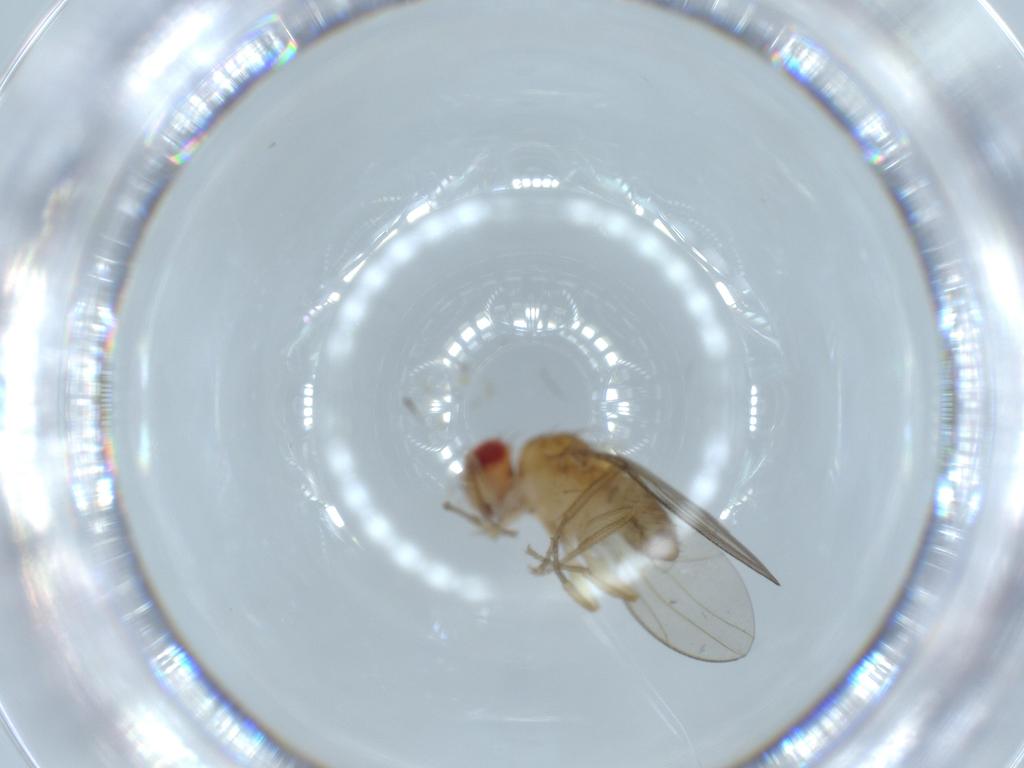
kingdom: Animalia
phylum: Arthropoda
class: Insecta
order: Diptera
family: Drosophilidae
